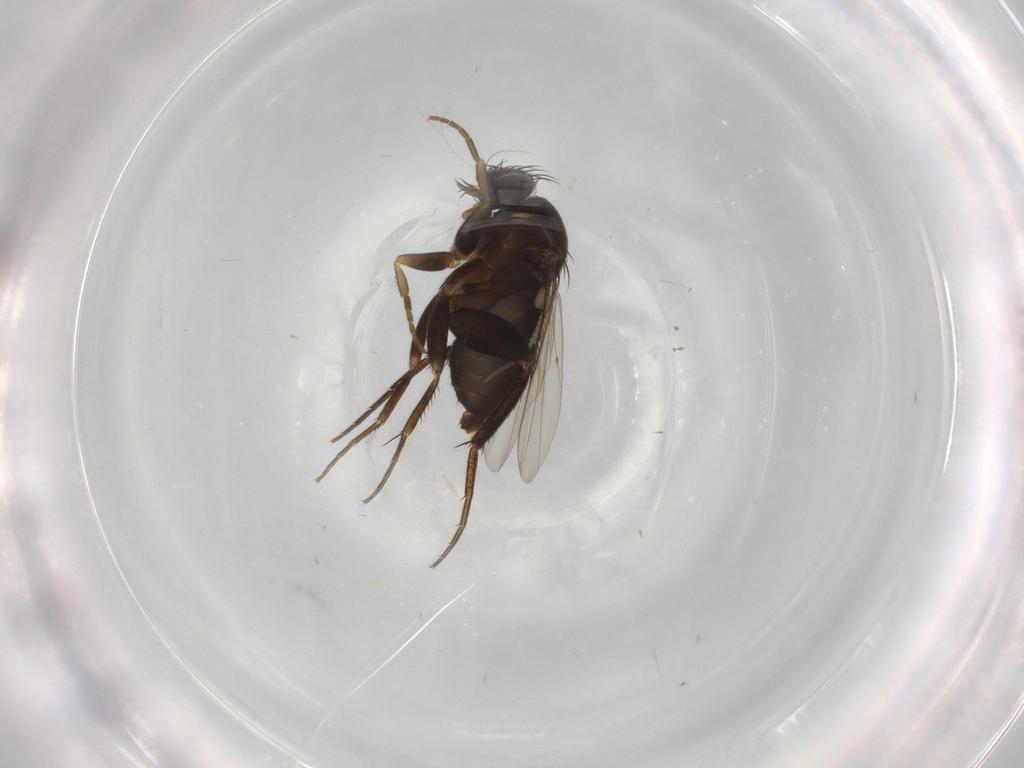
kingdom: Animalia
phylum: Arthropoda
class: Insecta
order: Diptera
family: Phoridae
